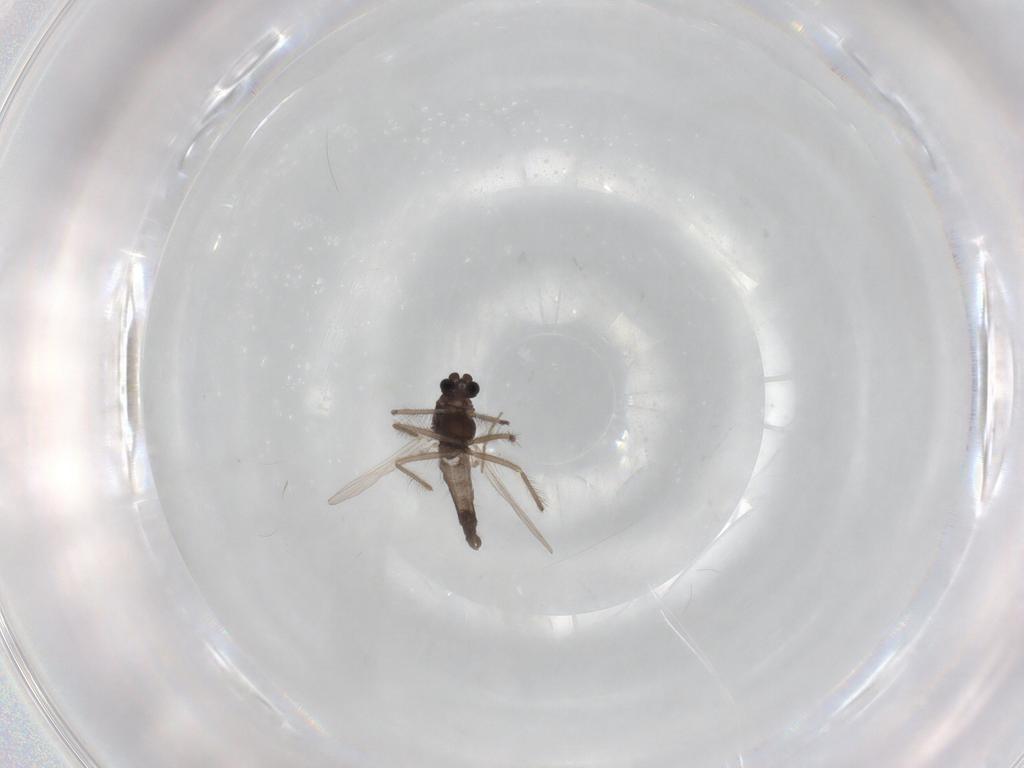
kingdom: Animalia
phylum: Arthropoda
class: Insecta
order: Diptera
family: Chironomidae
